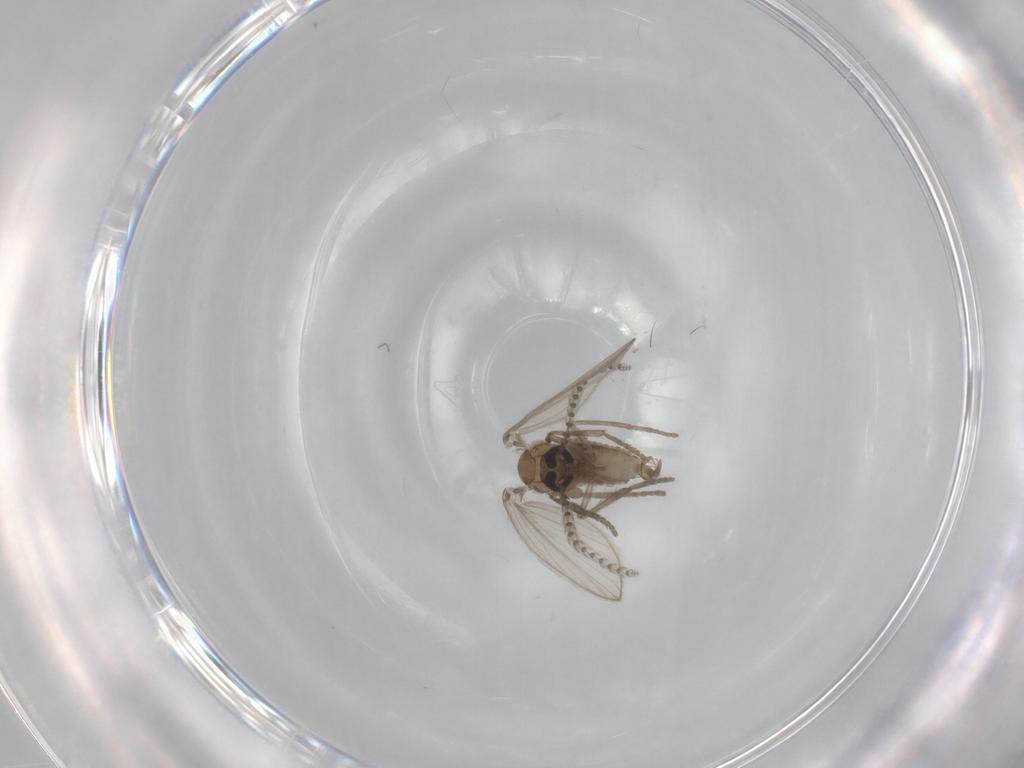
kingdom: Animalia
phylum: Arthropoda
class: Insecta
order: Diptera
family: Psychodidae
